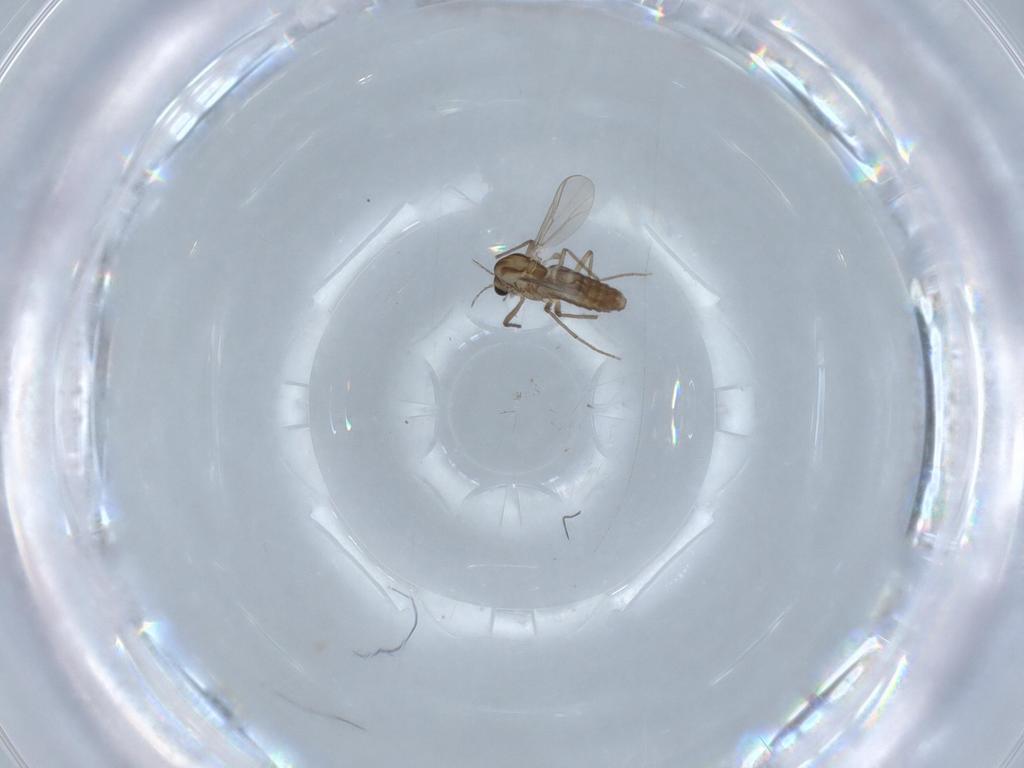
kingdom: Animalia
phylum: Arthropoda
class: Insecta
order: Diptera
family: Chironomidae
